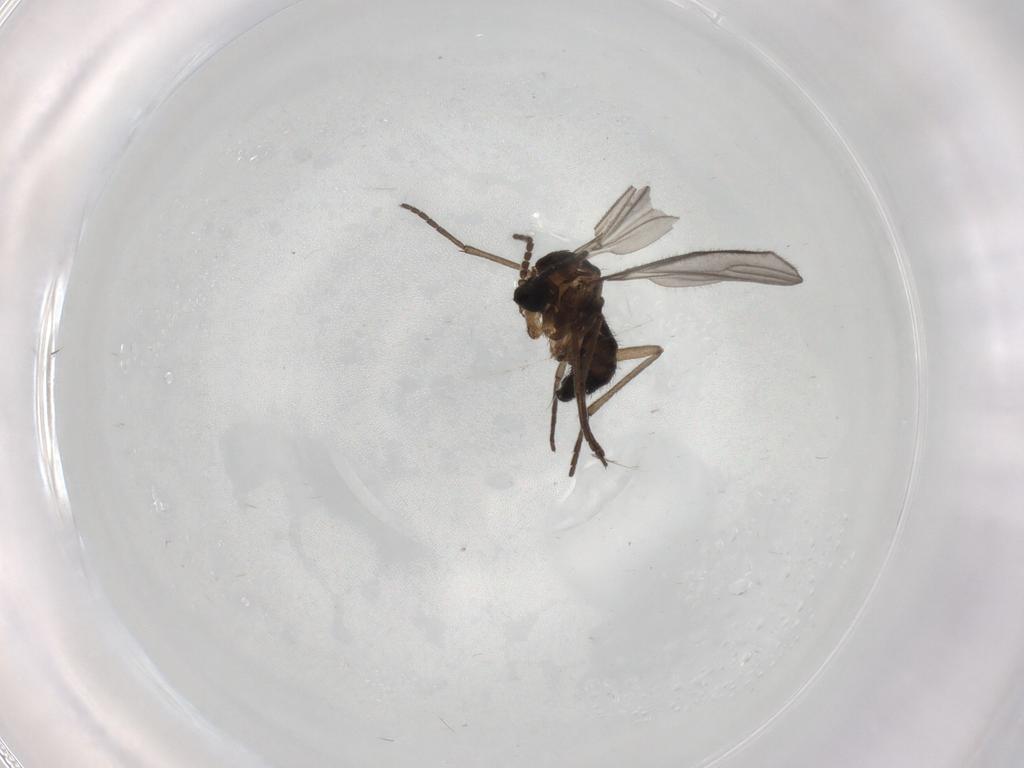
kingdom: Animalia
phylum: Arthropoda
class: Insecta
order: Diptera
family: Sciaridae
